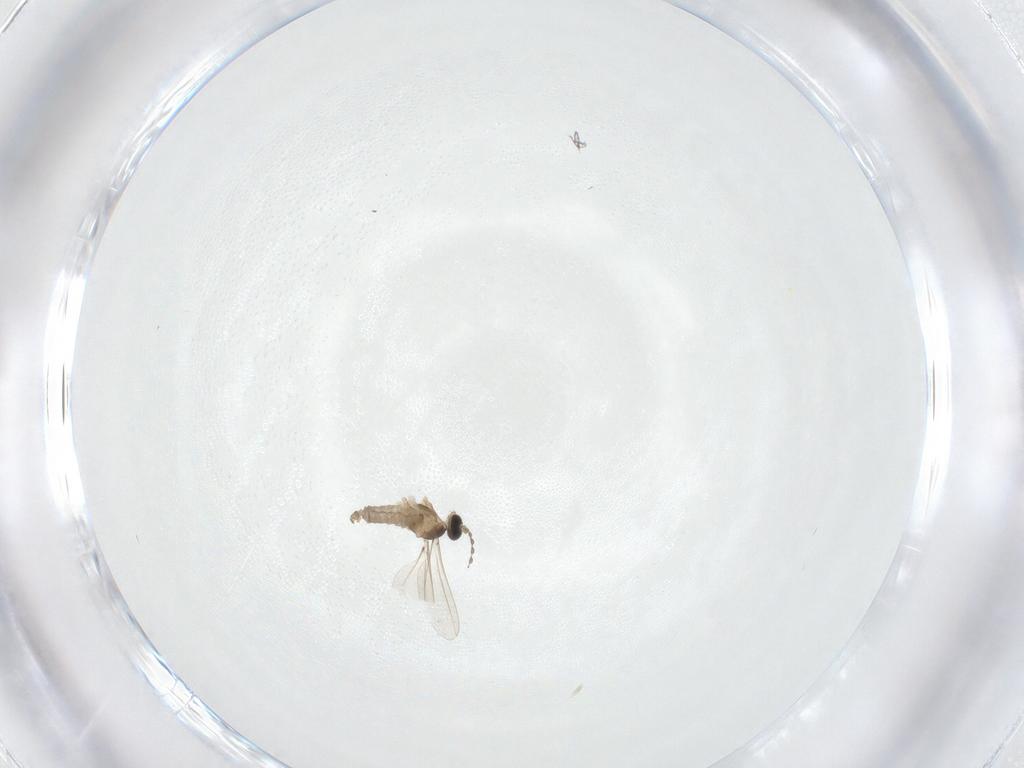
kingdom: Animalia
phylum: Arthropoda
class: Insecta
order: Diptera
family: Cecidomyiidae
